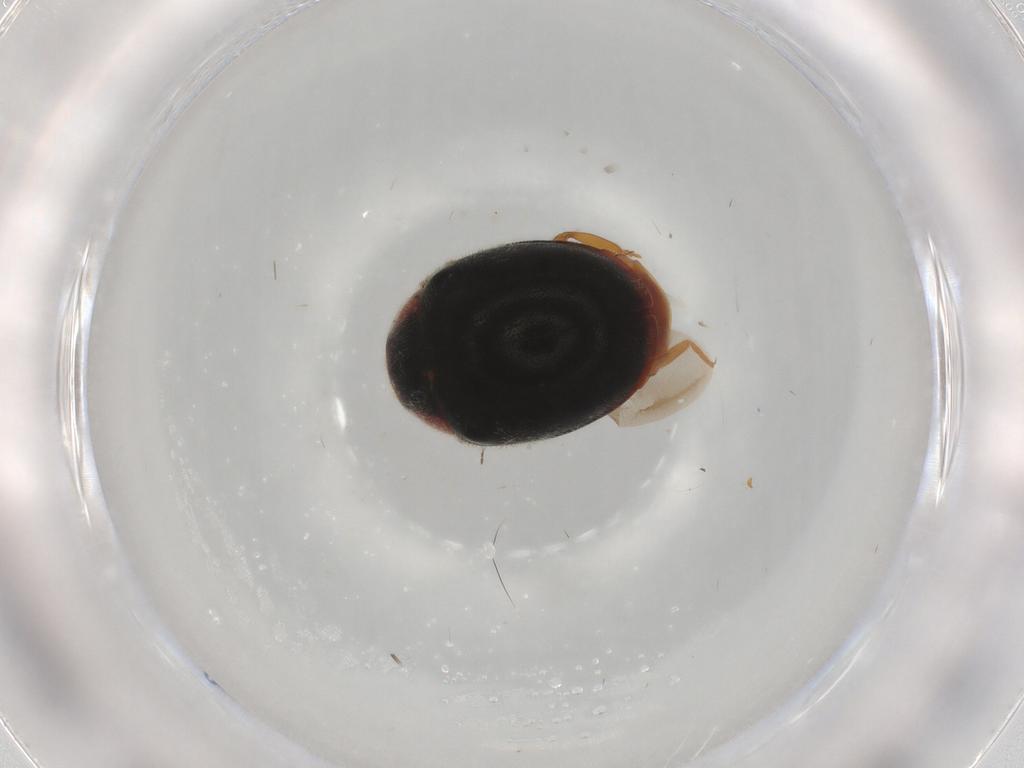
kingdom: Animalia
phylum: Arthropoda
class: Insecta
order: Coleoptera
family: Coccinellidae
